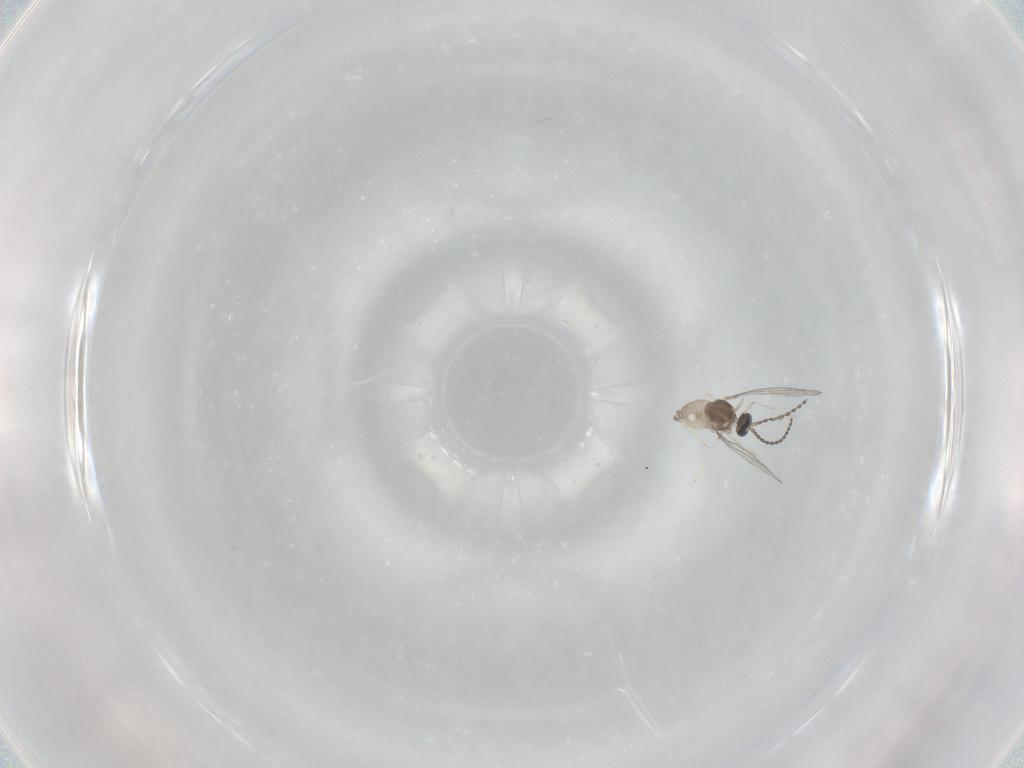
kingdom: Animalia
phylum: Arthropoda
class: Insecta
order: Diptera
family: Cecidomyiidae
